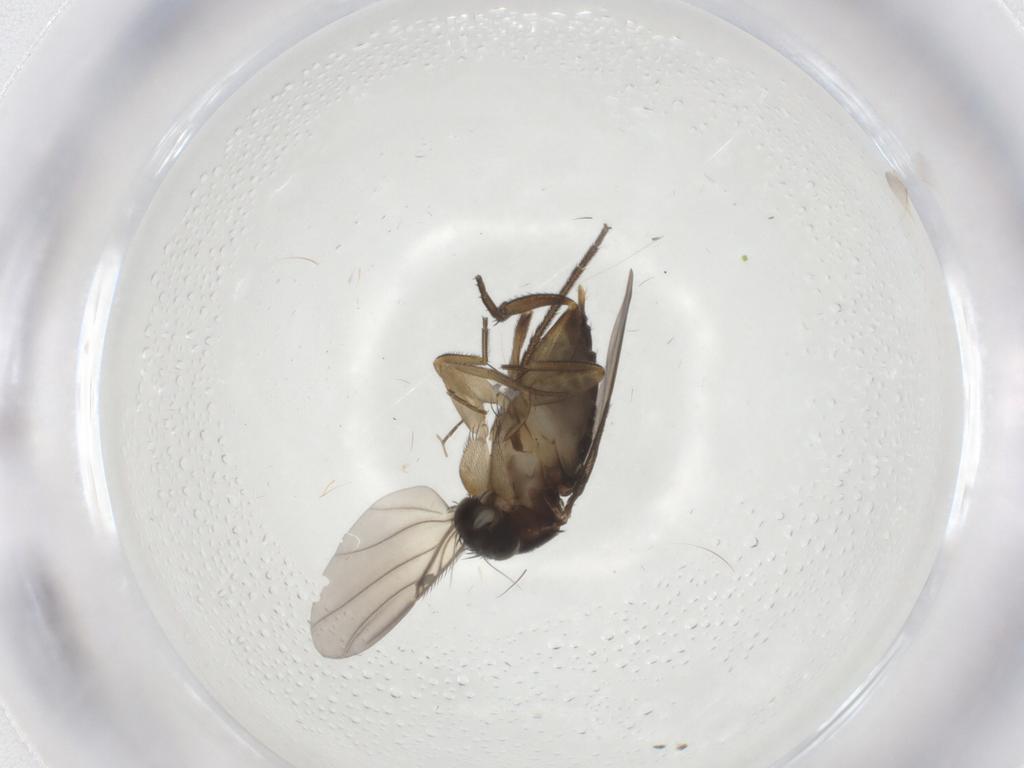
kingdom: Animalia
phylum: Arthropoda
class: Insecta
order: Diptera
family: Phoridae
